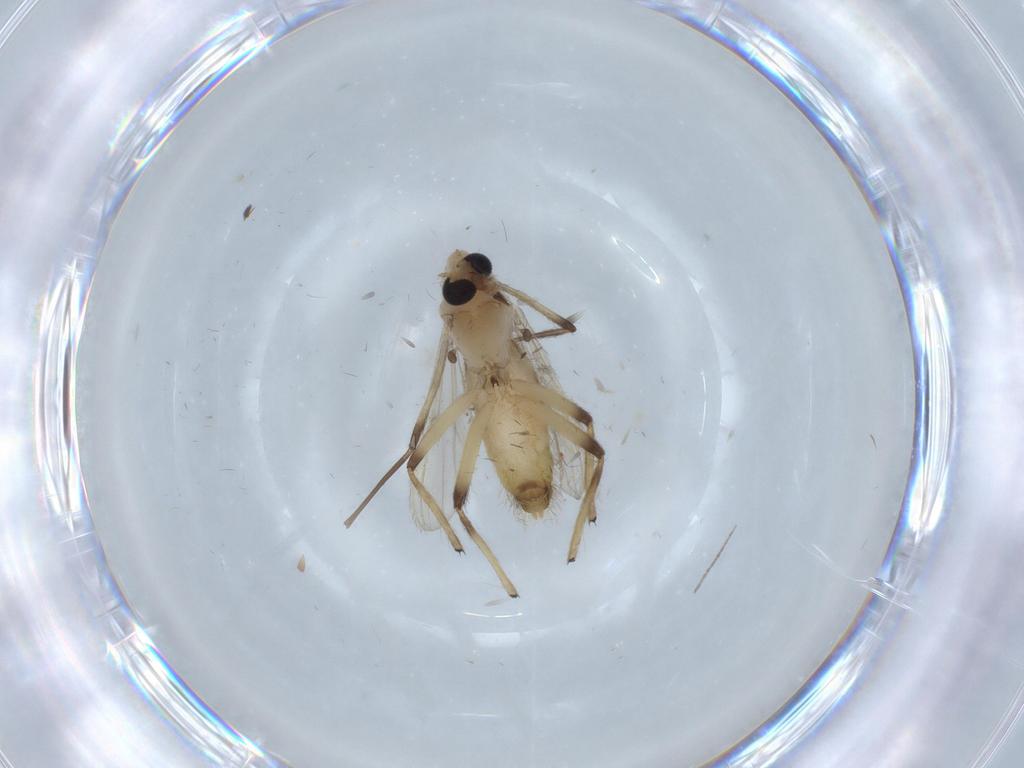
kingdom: Animalia
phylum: Arthropoda
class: Insecta
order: Diptera
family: Chironomidae
